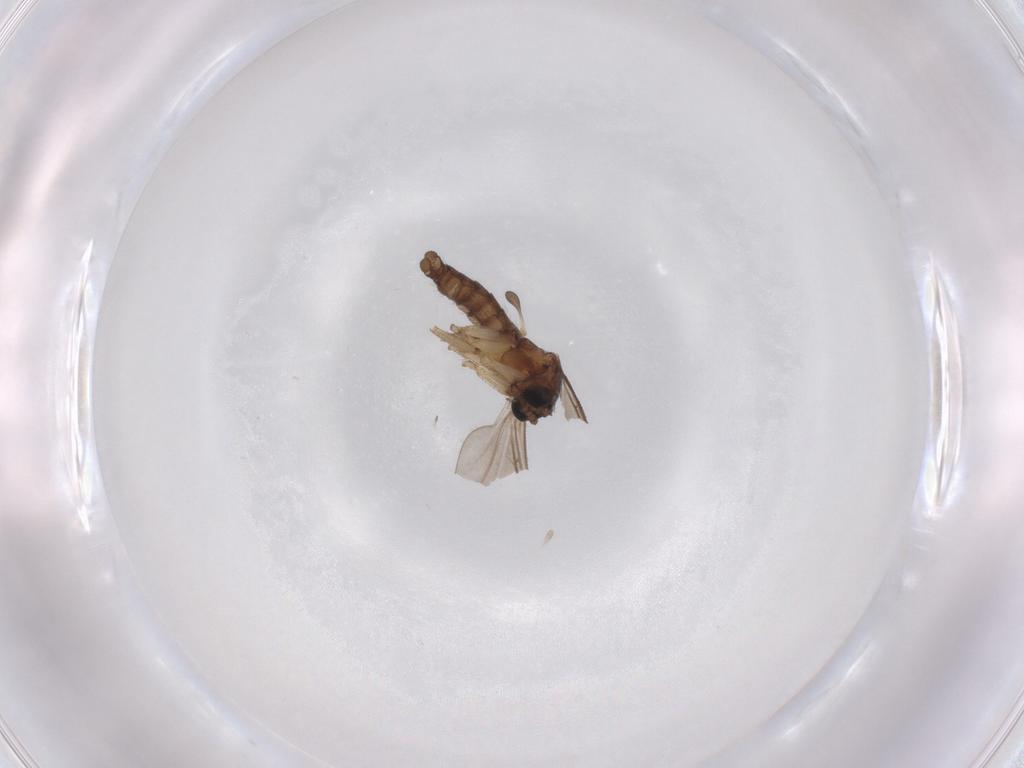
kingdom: Animalia
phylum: Arthropoda
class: Insecta
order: Diptera
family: Sciaridae
